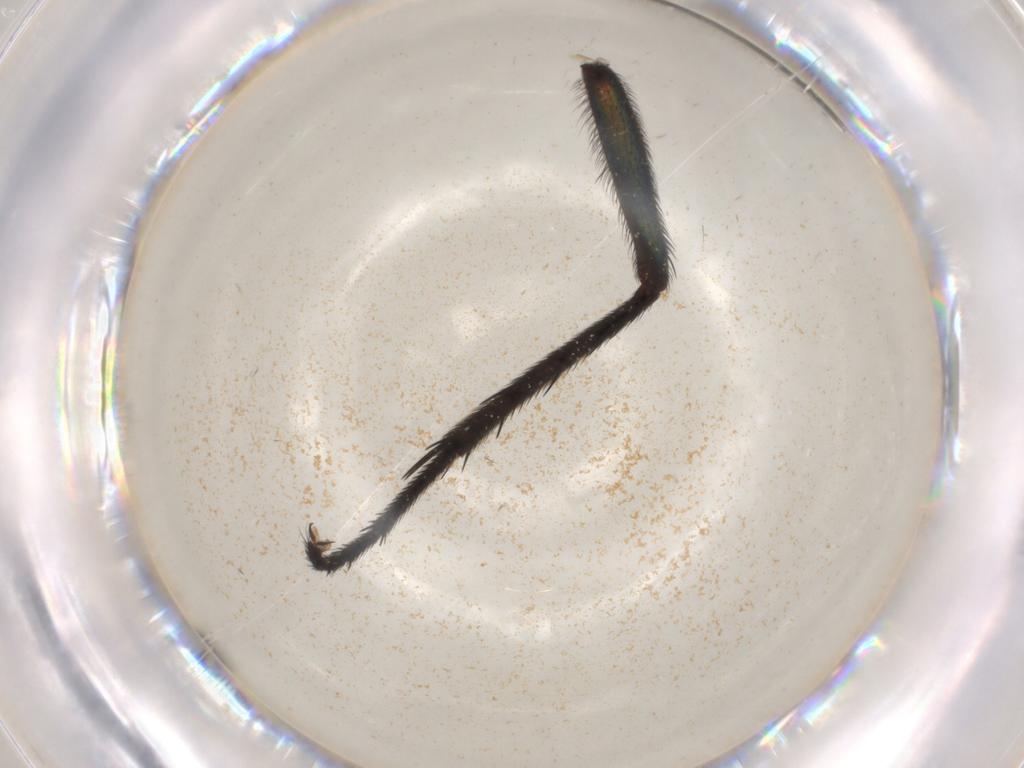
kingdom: Animalia
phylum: Arthropoda
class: Insecta
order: Diptera
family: Muscidae
